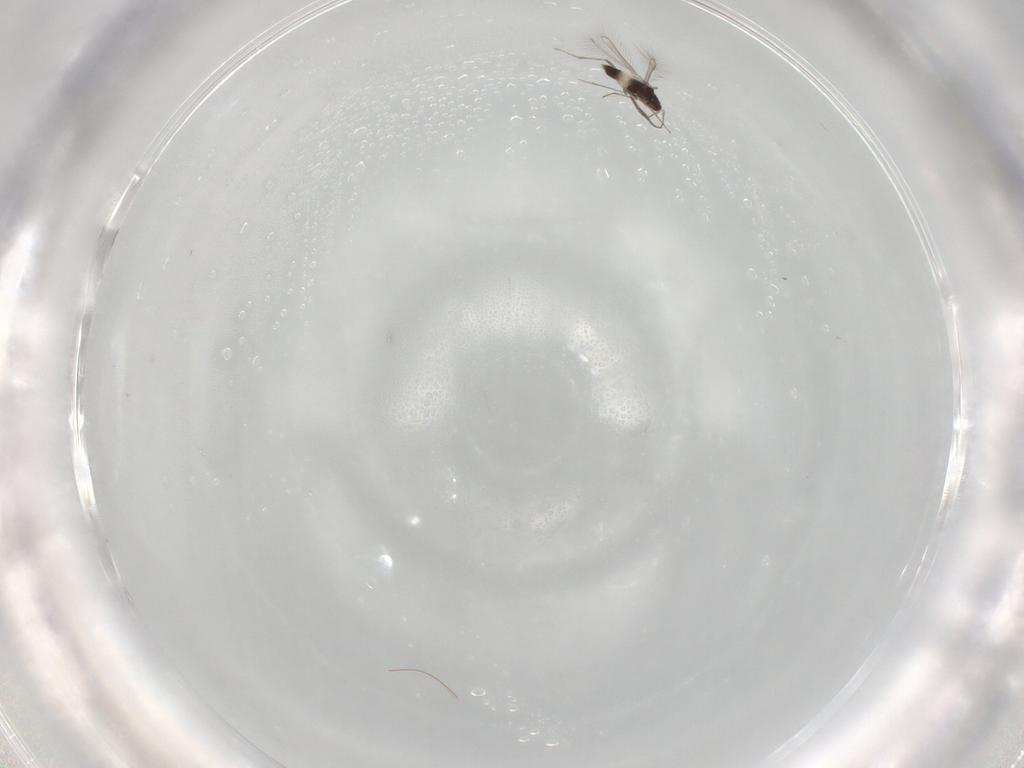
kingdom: Animalia
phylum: Arthropoda
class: Insecta
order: Hymenoptera
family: Mymaridae
